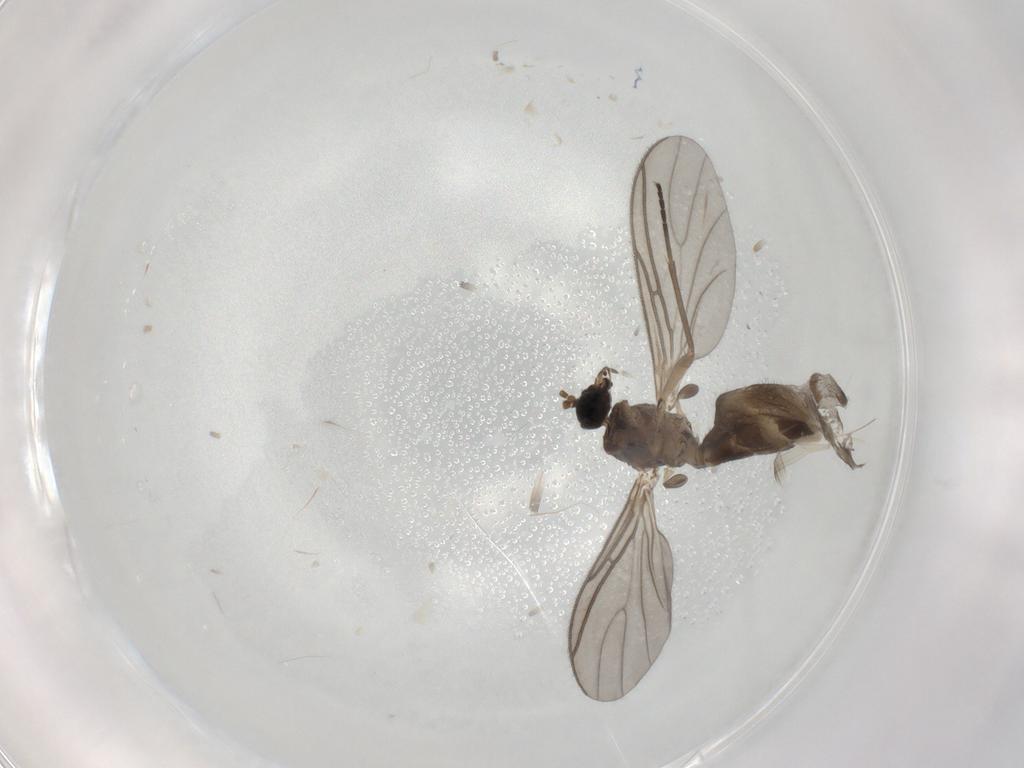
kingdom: Animalia
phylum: Arthropoda
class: Insecta
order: Diptera
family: Sciaridae
